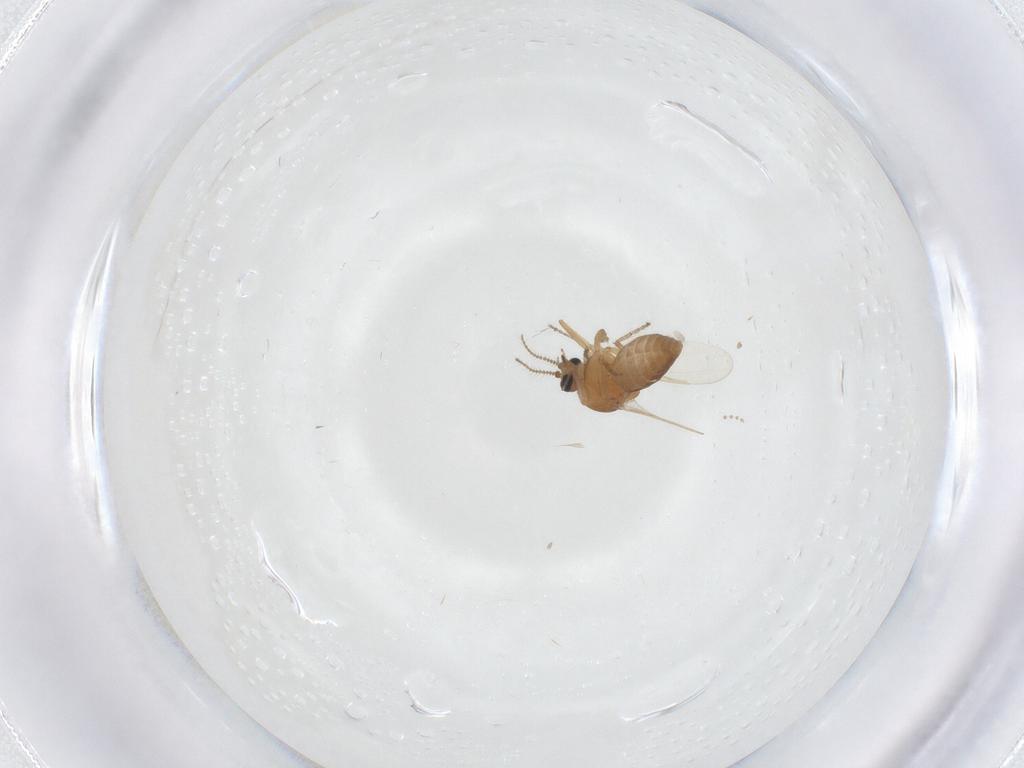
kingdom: Animalia
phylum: Arthropoda
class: Insecta
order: Diptera
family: Ceratopogonidae
